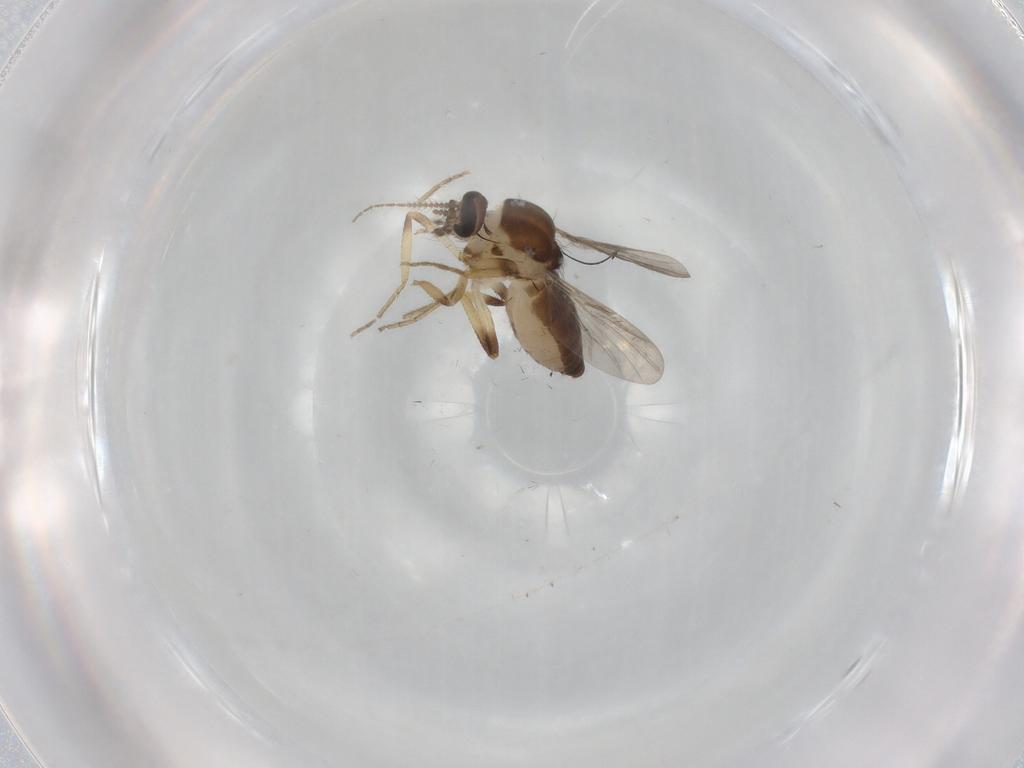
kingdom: Animalia
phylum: Arthropoda
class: Insecta
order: Diptera
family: Ceratopogonidae
